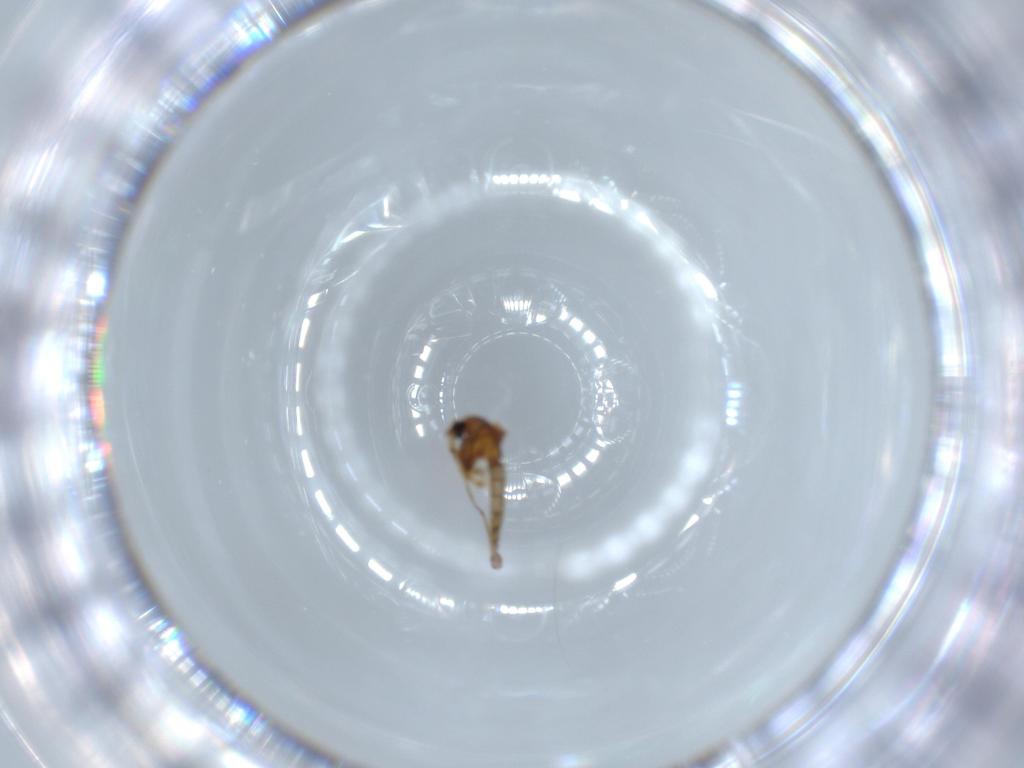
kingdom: Animalia
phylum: Arthropoda
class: Insecta
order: Diptera
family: Chironomidae
